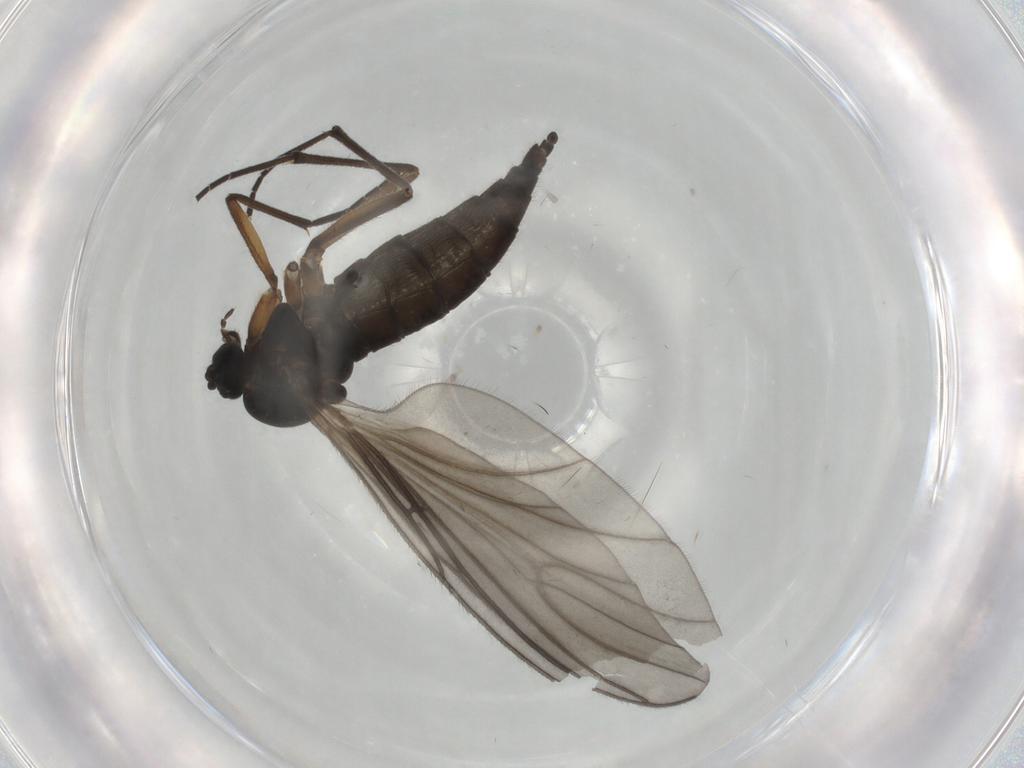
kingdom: Animalia
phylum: Arthropoda
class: Insecta
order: Diptera
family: Sciaridae
